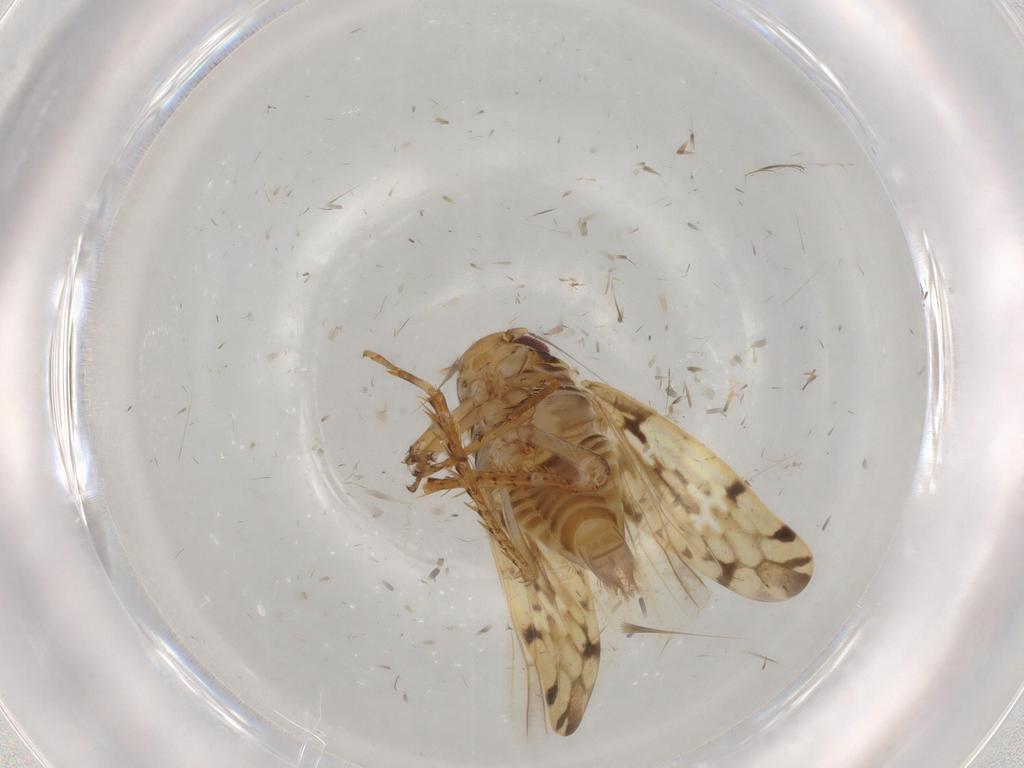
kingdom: Animalia
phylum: Arthropoda
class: Insecta
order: Hemiptera
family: Cicadellidae
